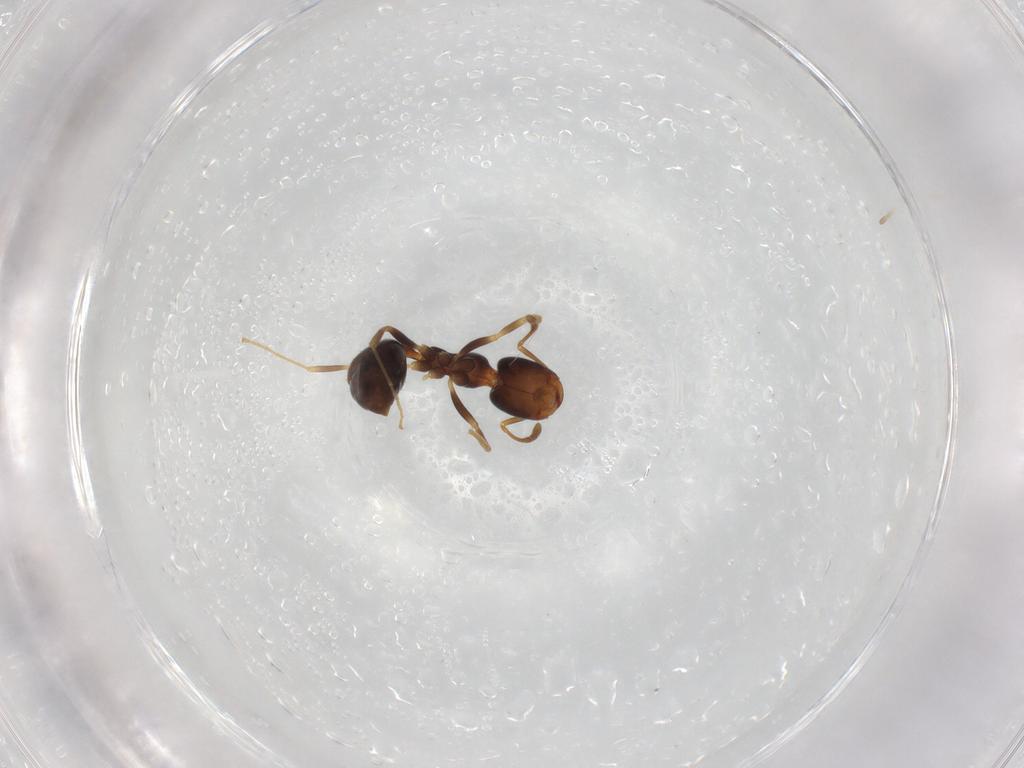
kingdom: Animalia
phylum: Arthropoda
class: Insecta
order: Hymenoptera
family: Formicidae
